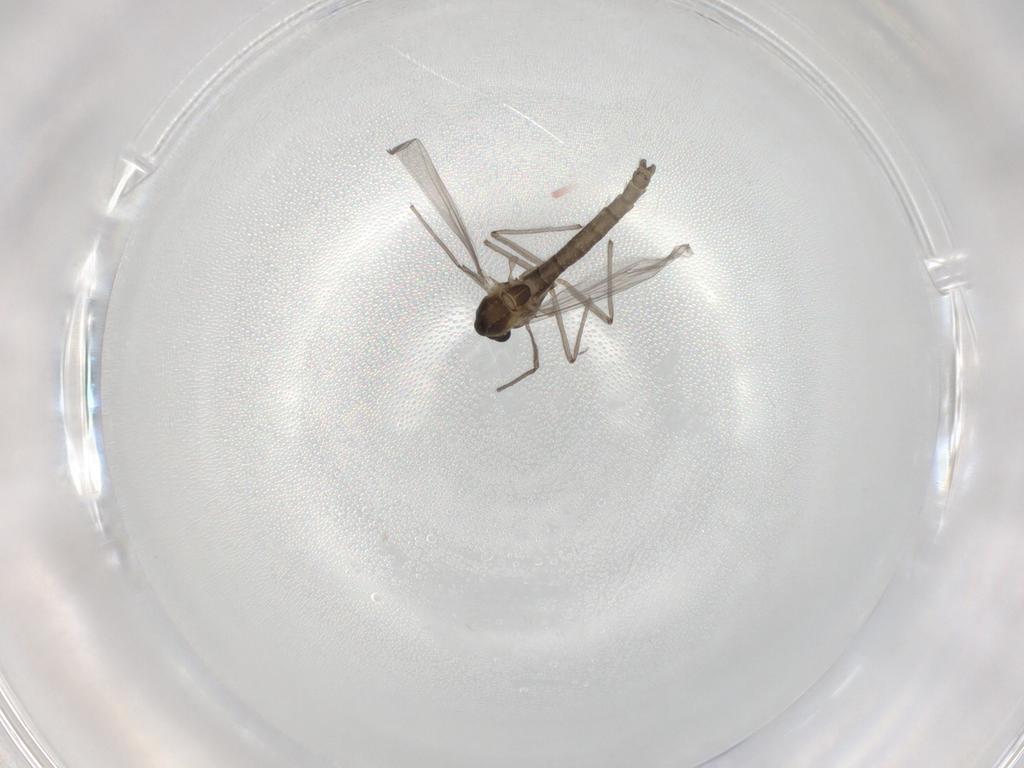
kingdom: Animalia
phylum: Arthropoda
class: Insecta
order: Diptera
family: Chironomidae
